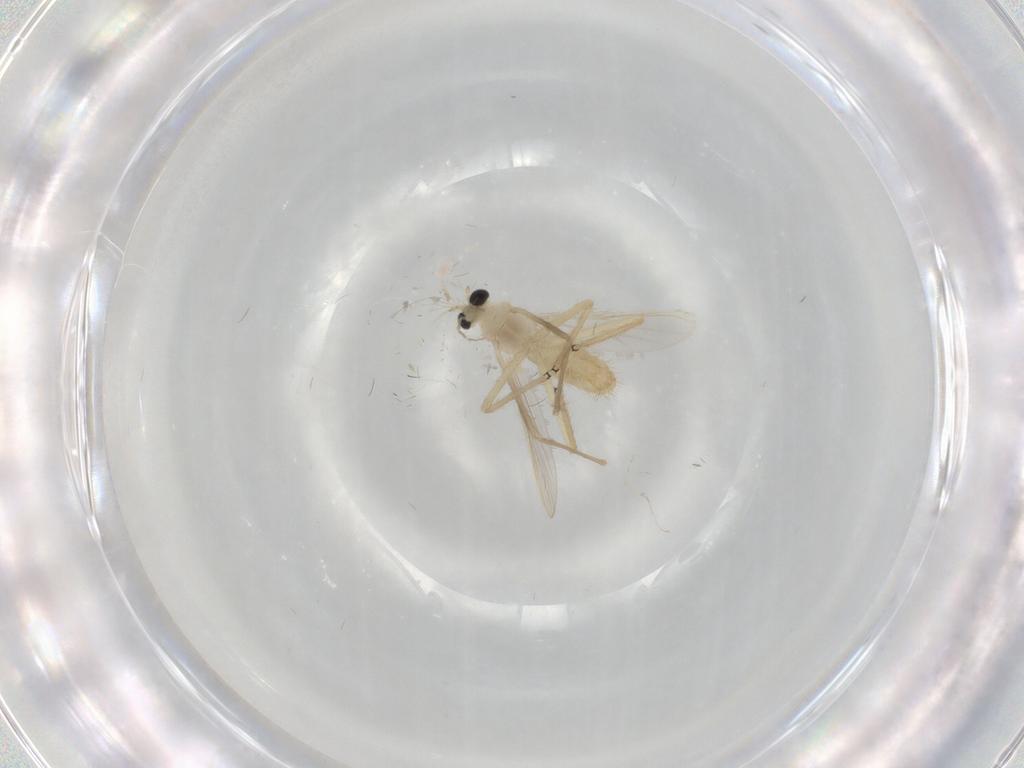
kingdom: Animalia
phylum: Arthropoda
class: Insecta
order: Diptera
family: Chironomidae
